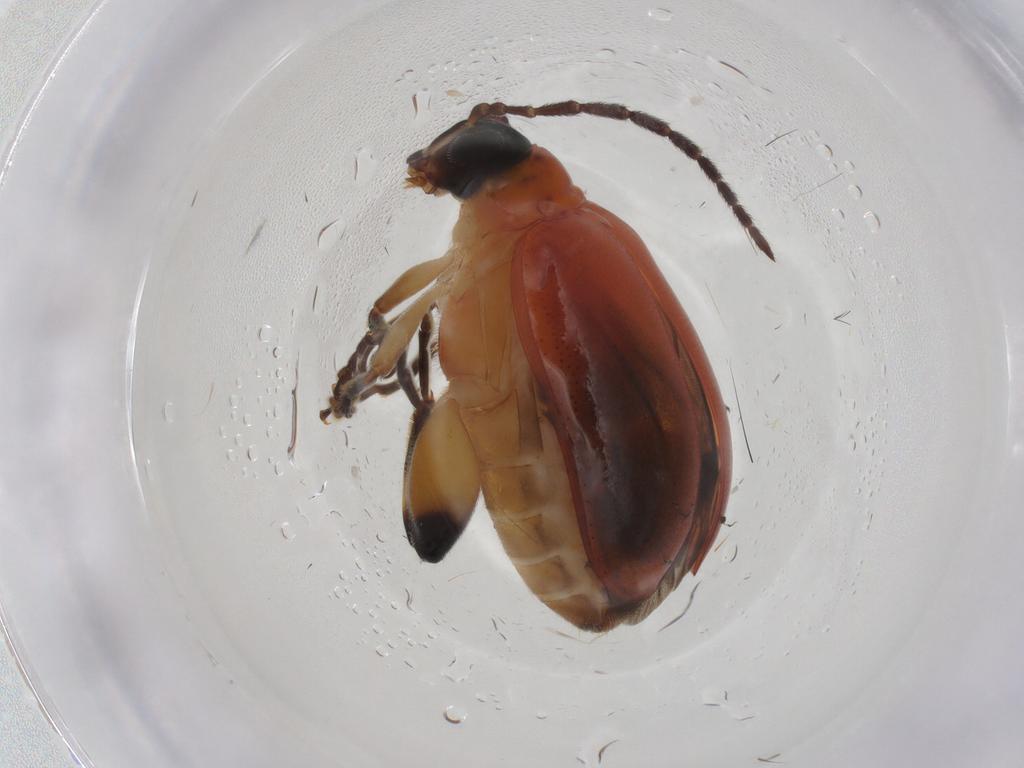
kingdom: Animalia
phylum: Arthropoda
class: Insecta
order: Coleoptera
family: Chrysomelidae
